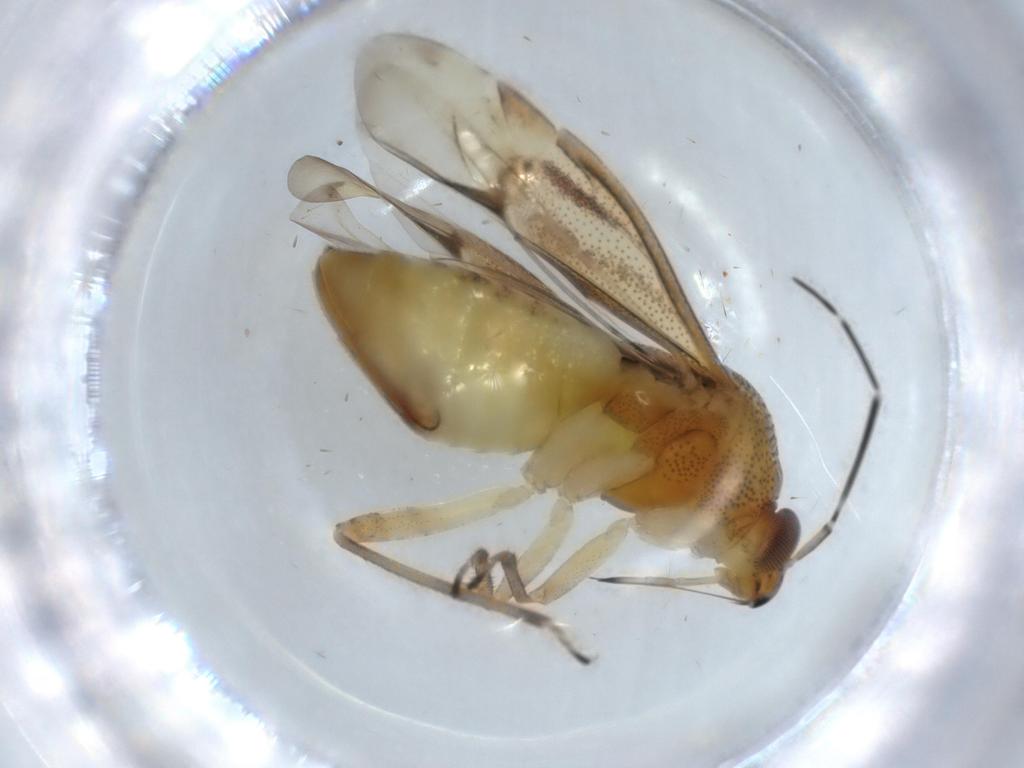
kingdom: Animalia
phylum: Arthropoda
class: Insecta
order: Hemiptera
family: Miridae
